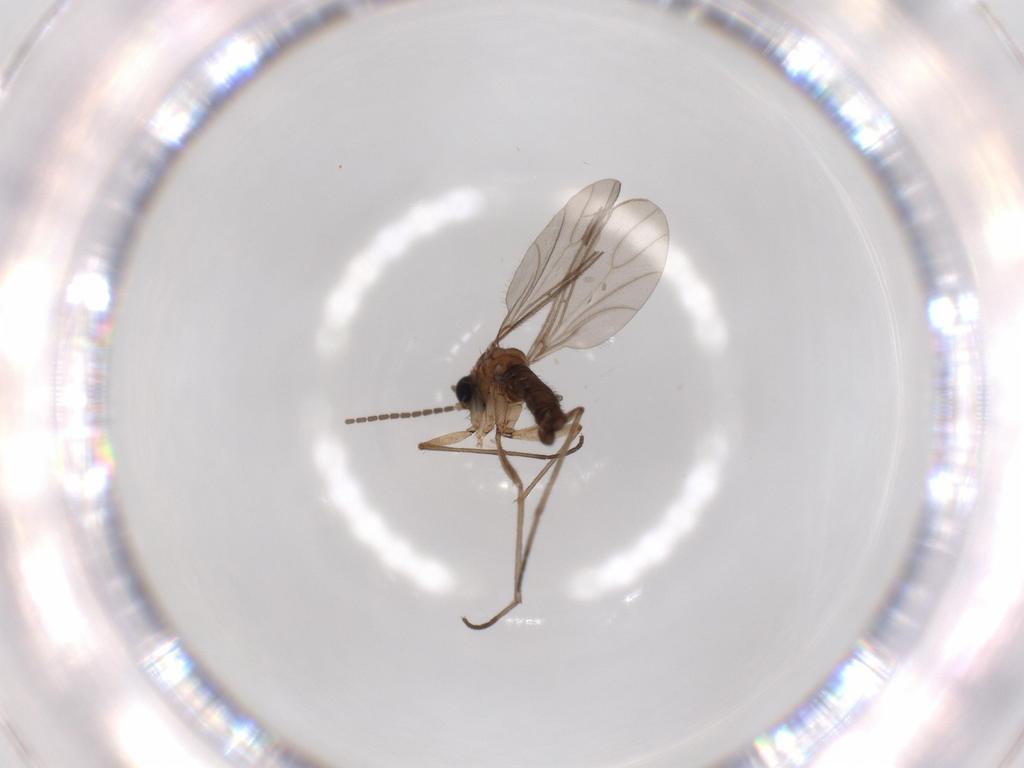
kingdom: Animalia
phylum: Arthropoda
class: Insecta
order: Diptera
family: Sciaridae
